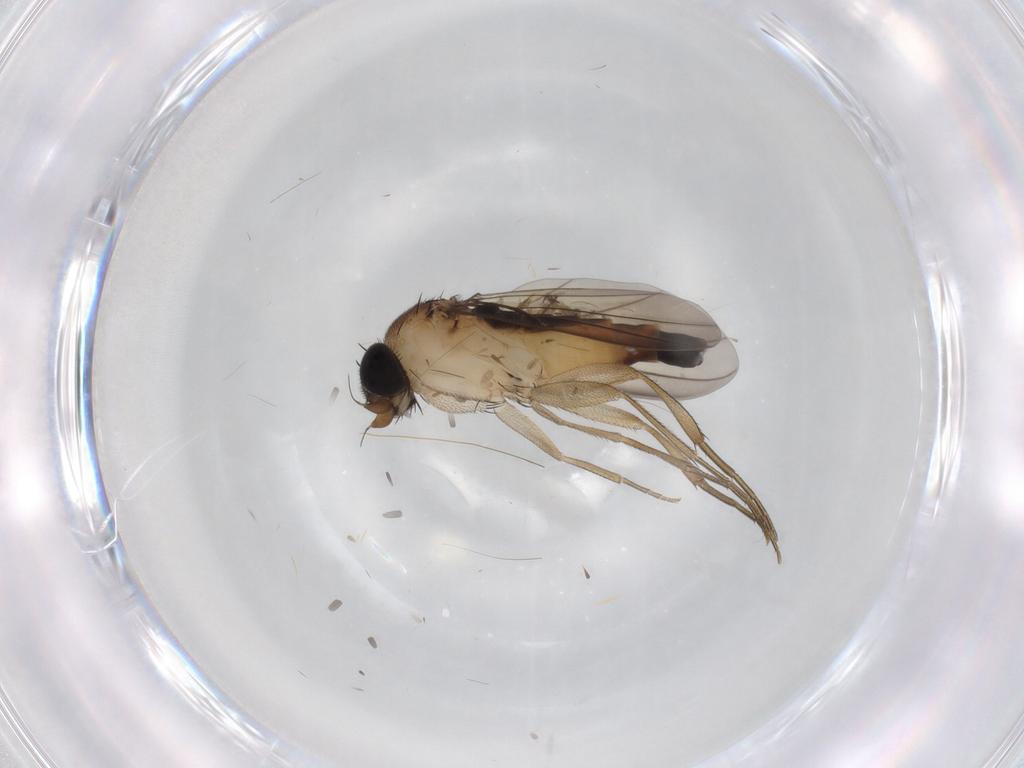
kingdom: Animalia
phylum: Arthropoda
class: Insecta
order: Diptera
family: Phoridae
